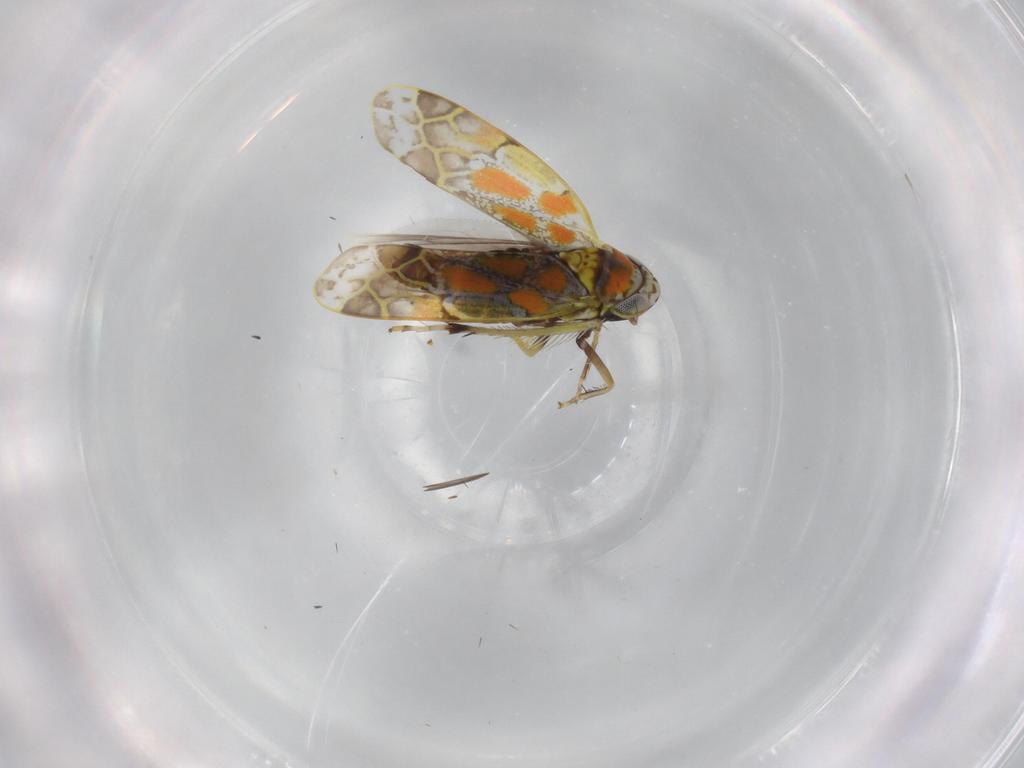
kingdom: Animalia
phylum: Arthropoda
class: Insecta
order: Hemiptera
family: Cicadellidae
